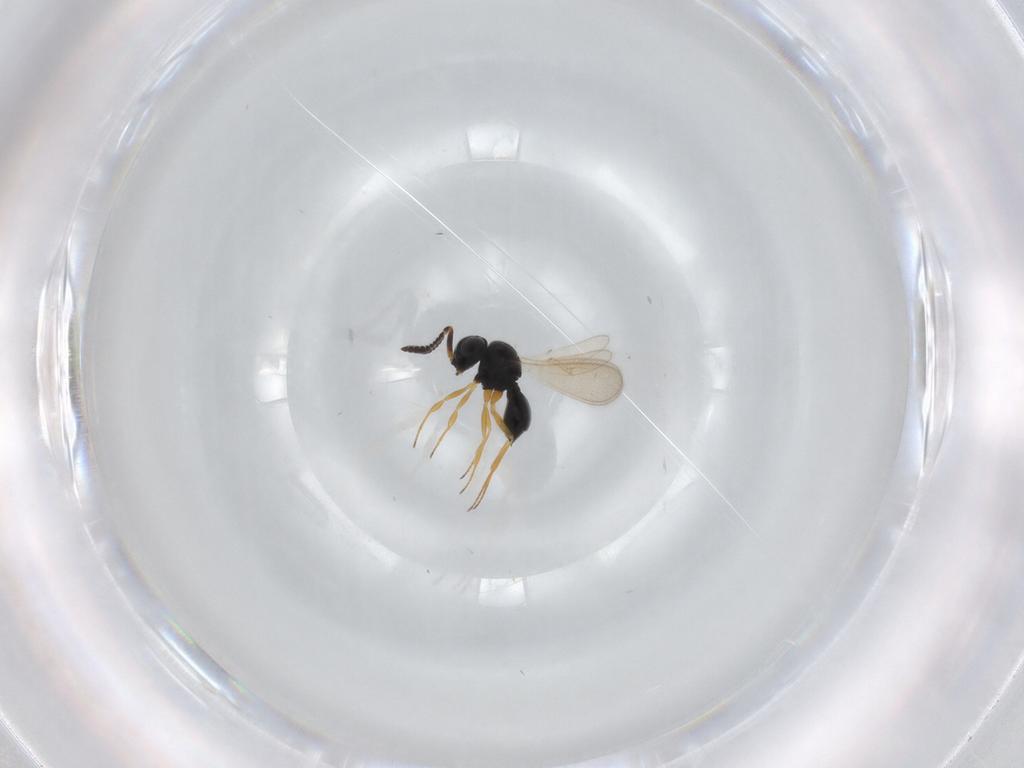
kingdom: Animalia
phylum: Arthropoda
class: Insecta
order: Hymenoptera
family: Scelionidae
